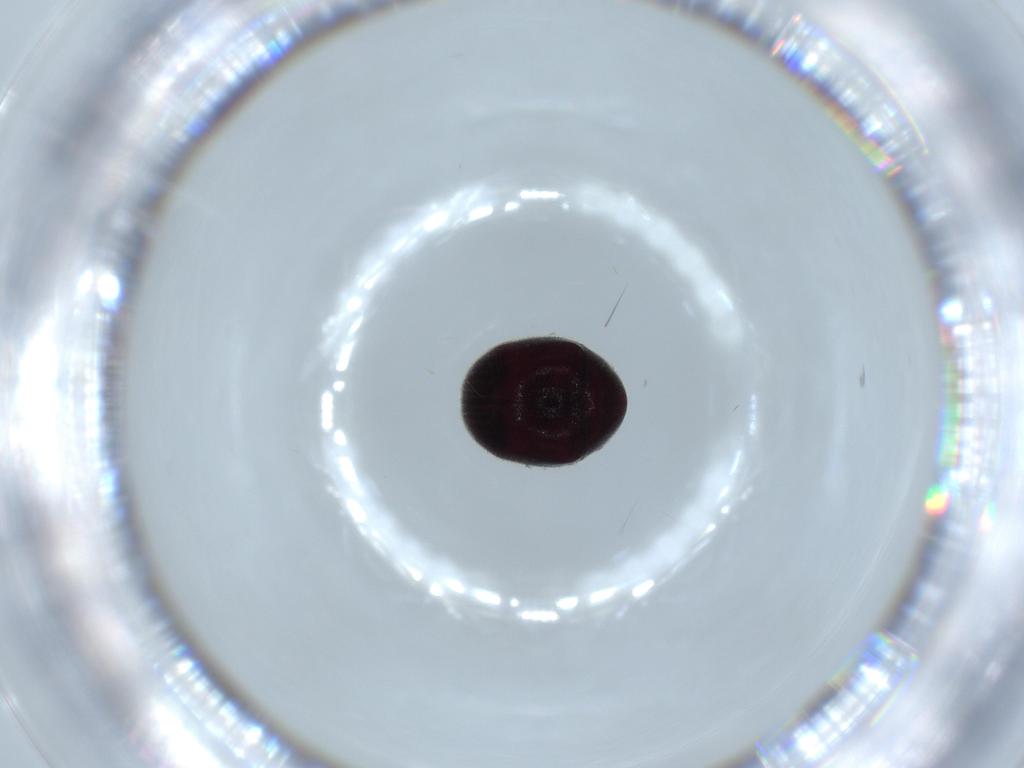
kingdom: Animalia
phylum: Arthropoda
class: Insecta
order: Coleoptera
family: Ptinidae
